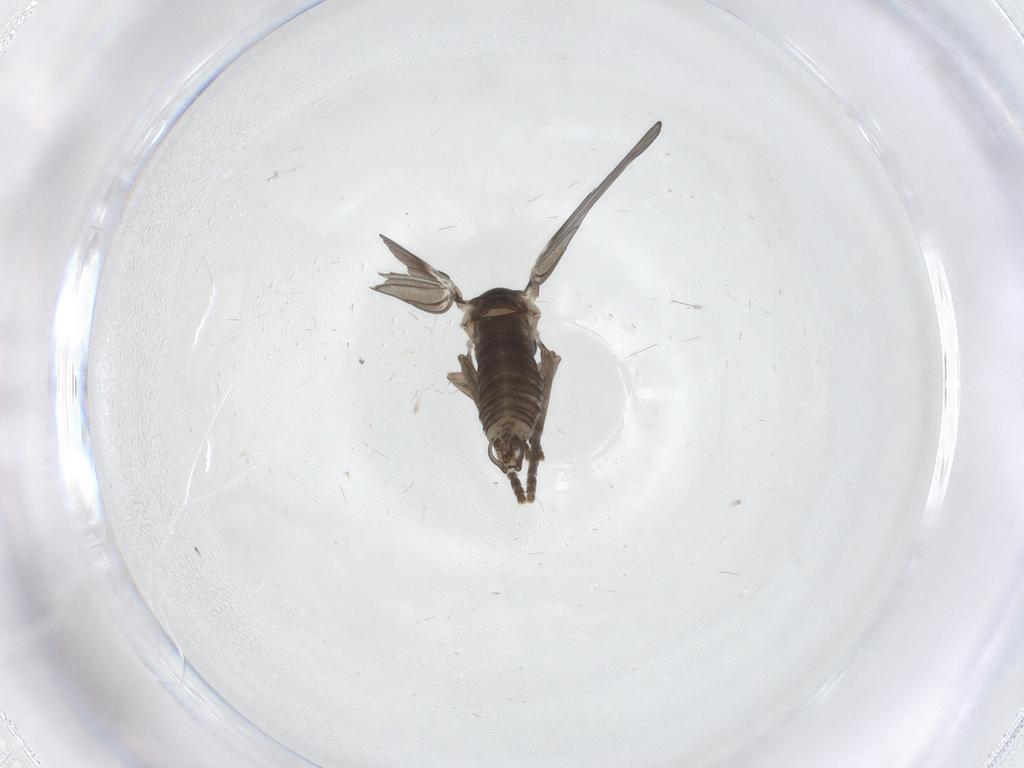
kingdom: Animalia
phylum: Arthropoda
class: Insecta
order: Diptera
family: Psychodidae
